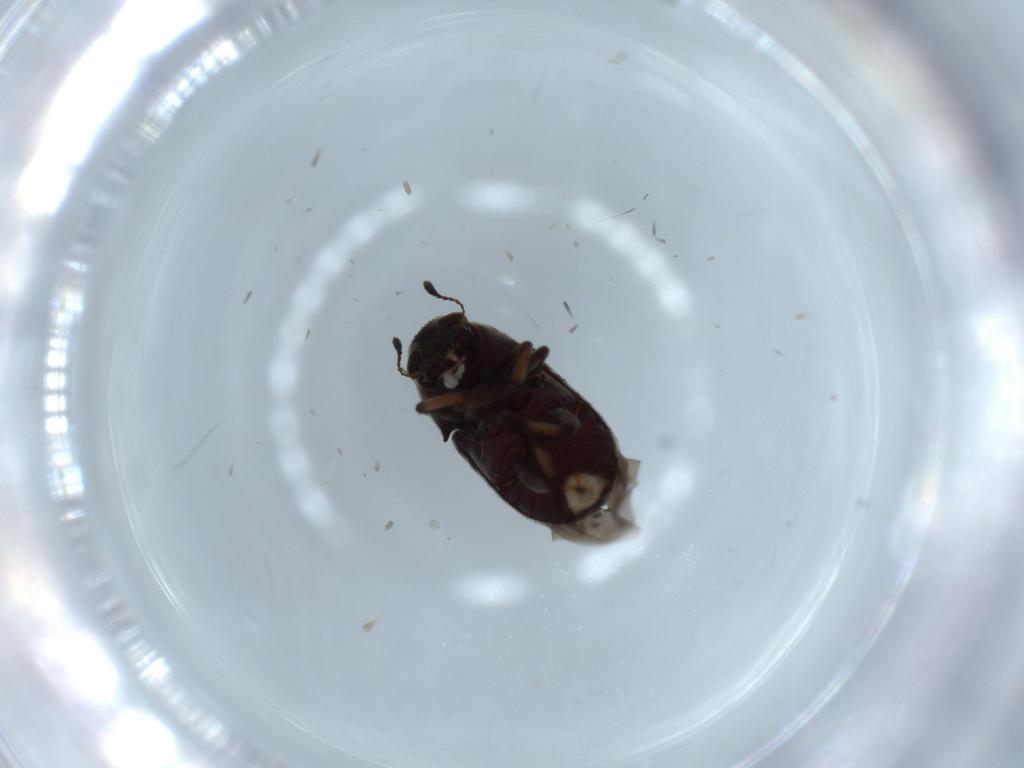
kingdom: Animalia
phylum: Arthropoda
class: Insecta
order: Coleoptera
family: Anthribidae
